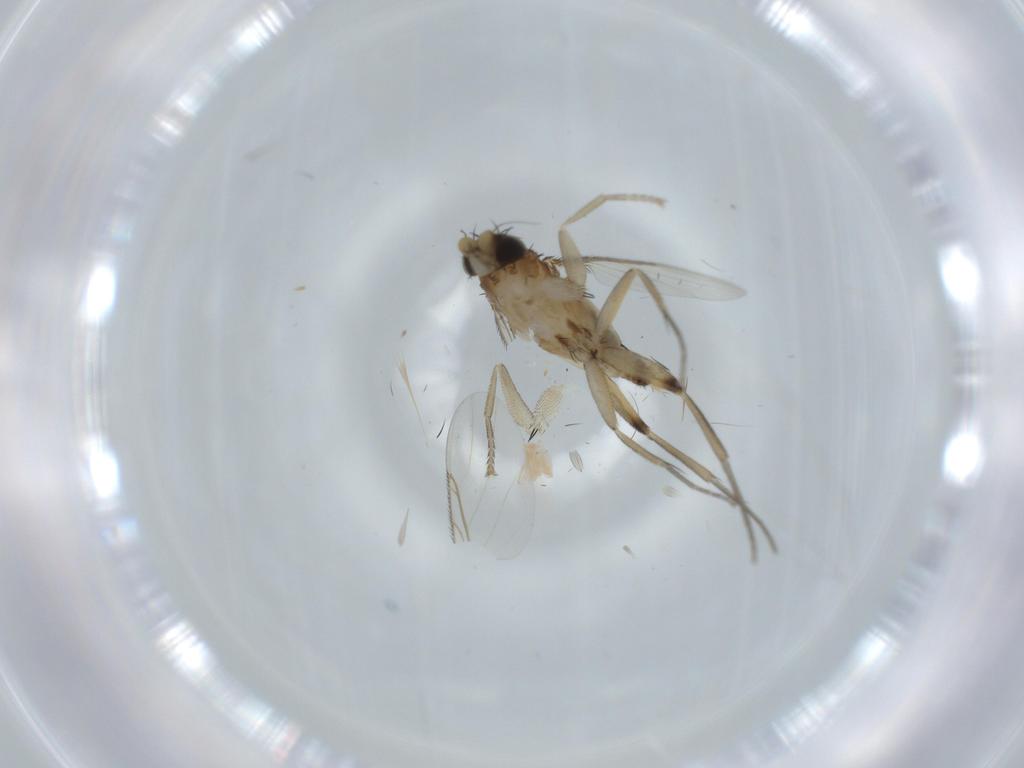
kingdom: Animalia
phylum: Arthropoda
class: Insecta
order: Diptera
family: Phoridae
